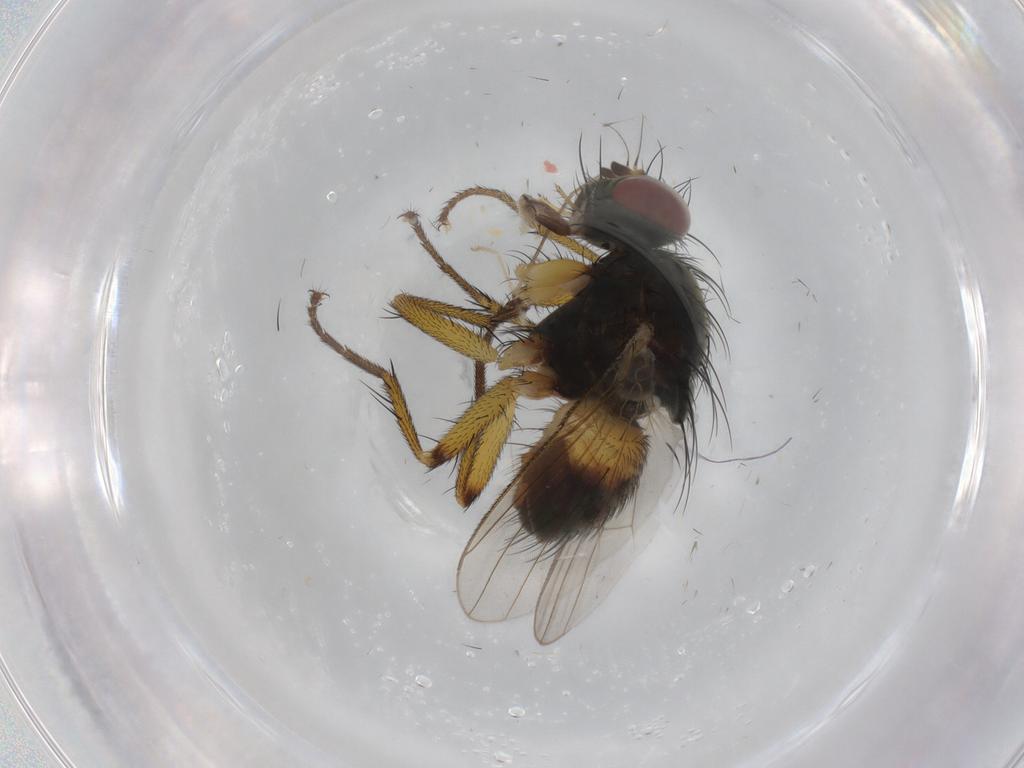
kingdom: Animalia
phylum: Arthropoda
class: Insecta
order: Diptera
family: Muscidae
